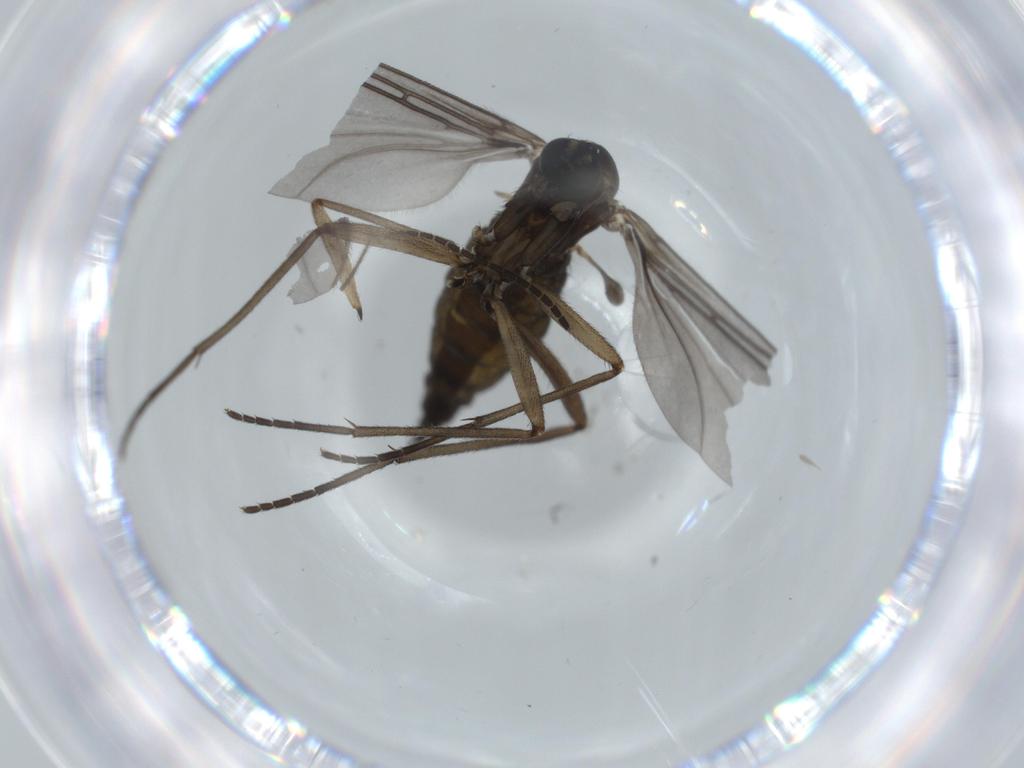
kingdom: Animalia
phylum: Arthropoda
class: Insecta
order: Diptera
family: Sciaridae
